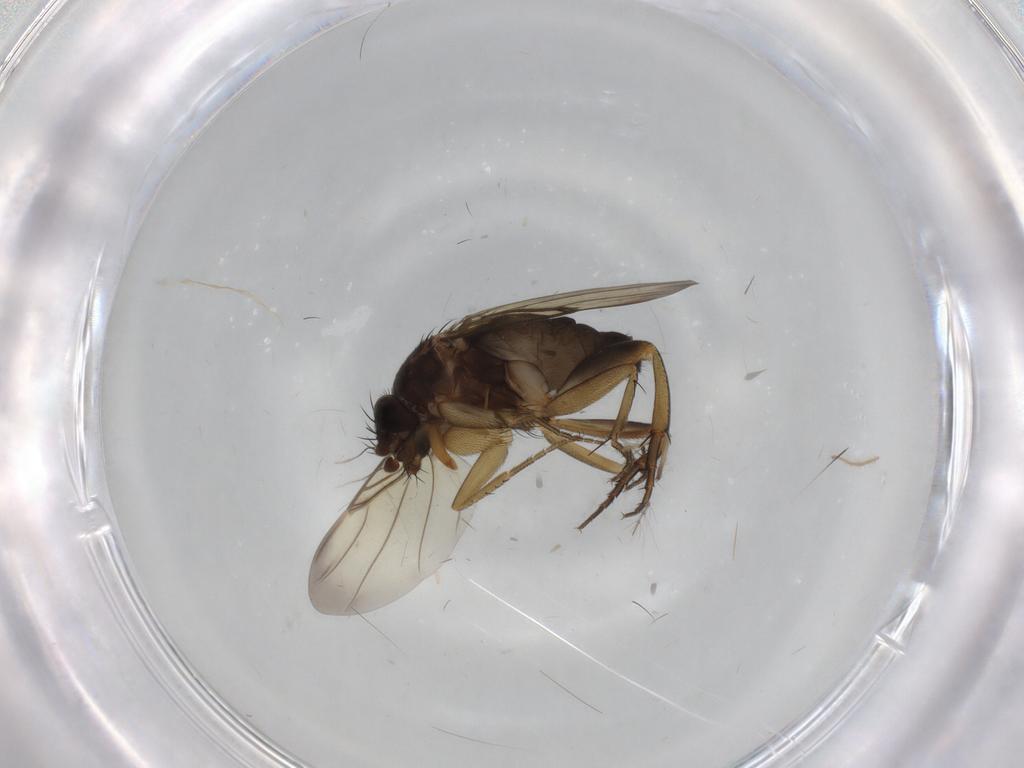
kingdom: Animalia
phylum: Arthropoda
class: Insecta
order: Diptera
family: Phoridae
